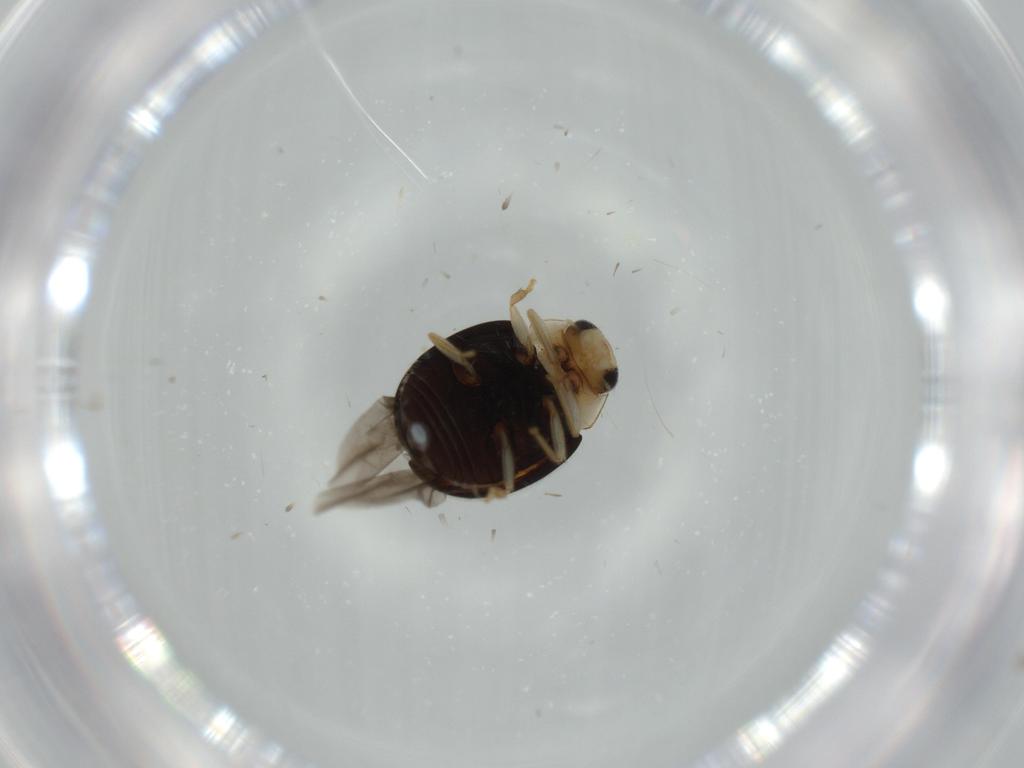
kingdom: Animalia
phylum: Arthropoda
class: Insecta
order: Coleoptera
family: Coccinellidae
